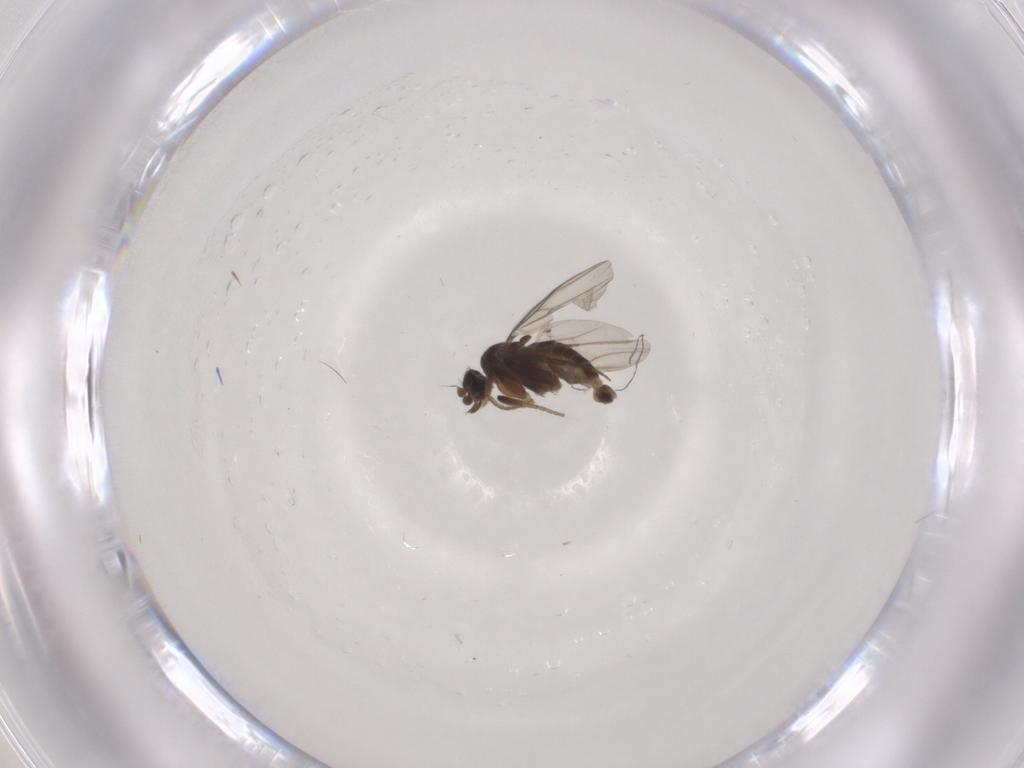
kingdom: Animalia
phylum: Arthropoda
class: Insecta
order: Diptera
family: Chironomidae
